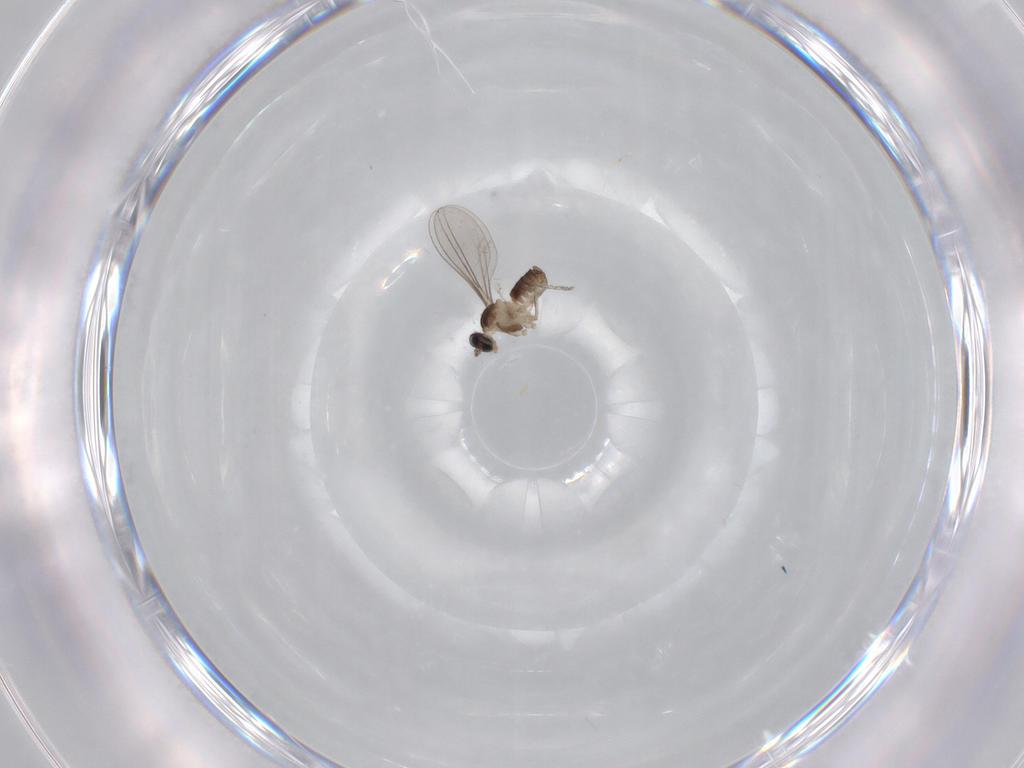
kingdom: Animalia
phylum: Arthropoda
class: Insecta
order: Diptera
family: Cecidomyiidae
